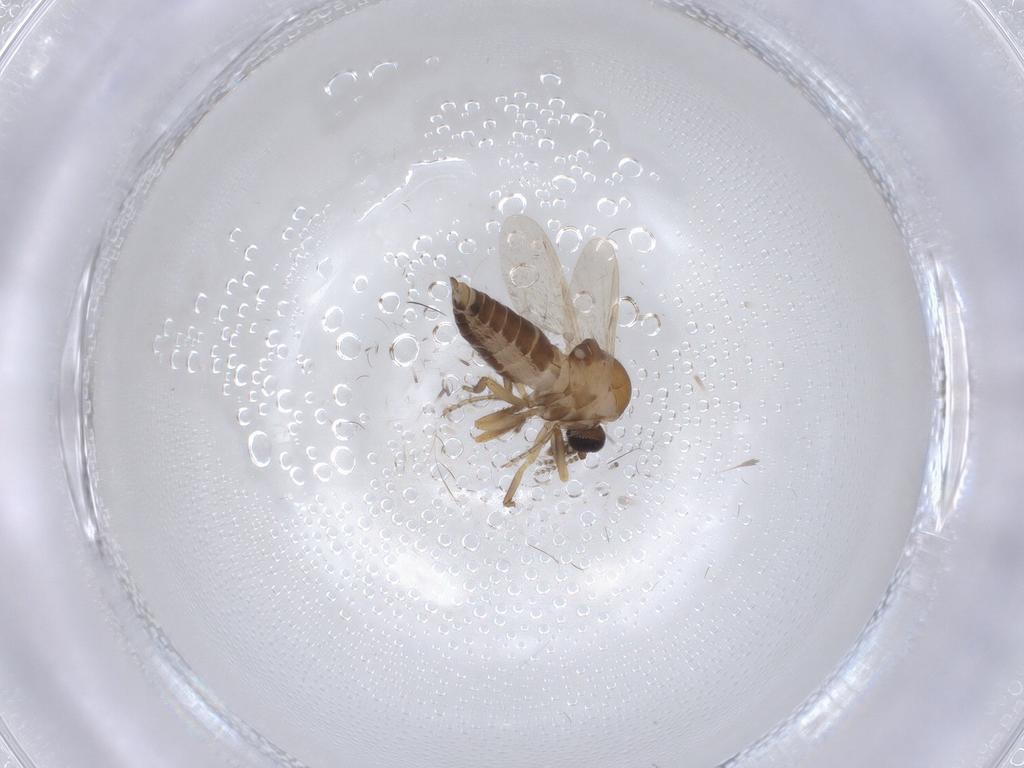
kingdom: Animalia
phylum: Arthropoda
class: Insecta
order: Diptera
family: Ceratopogonidae
